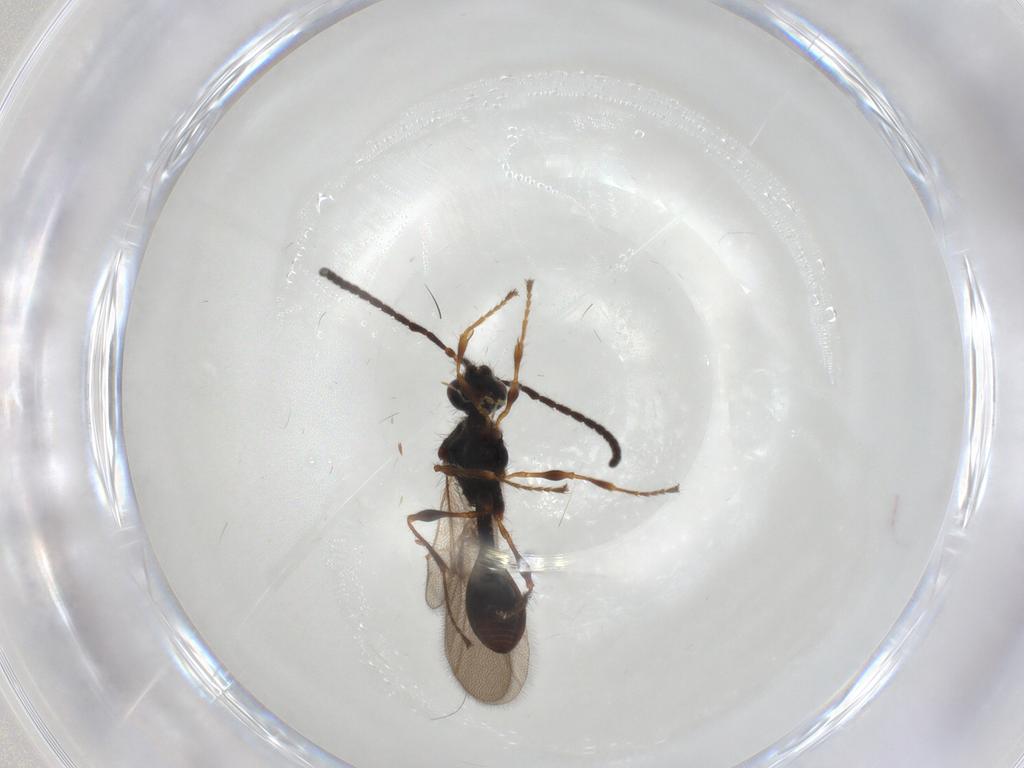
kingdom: Animalia
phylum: Arthropoda
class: Insecta
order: Hymenoptera
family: Diapriidae
